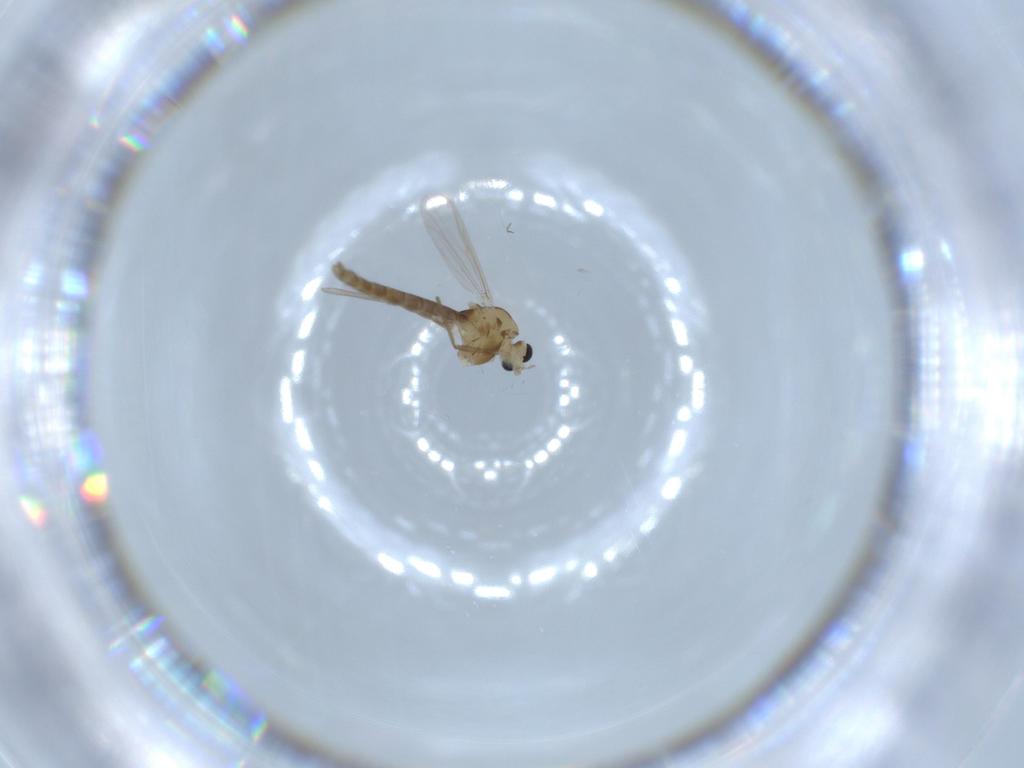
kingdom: Animalia
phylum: Arthropoda
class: Insecta
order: Diptera
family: Chironomidae
